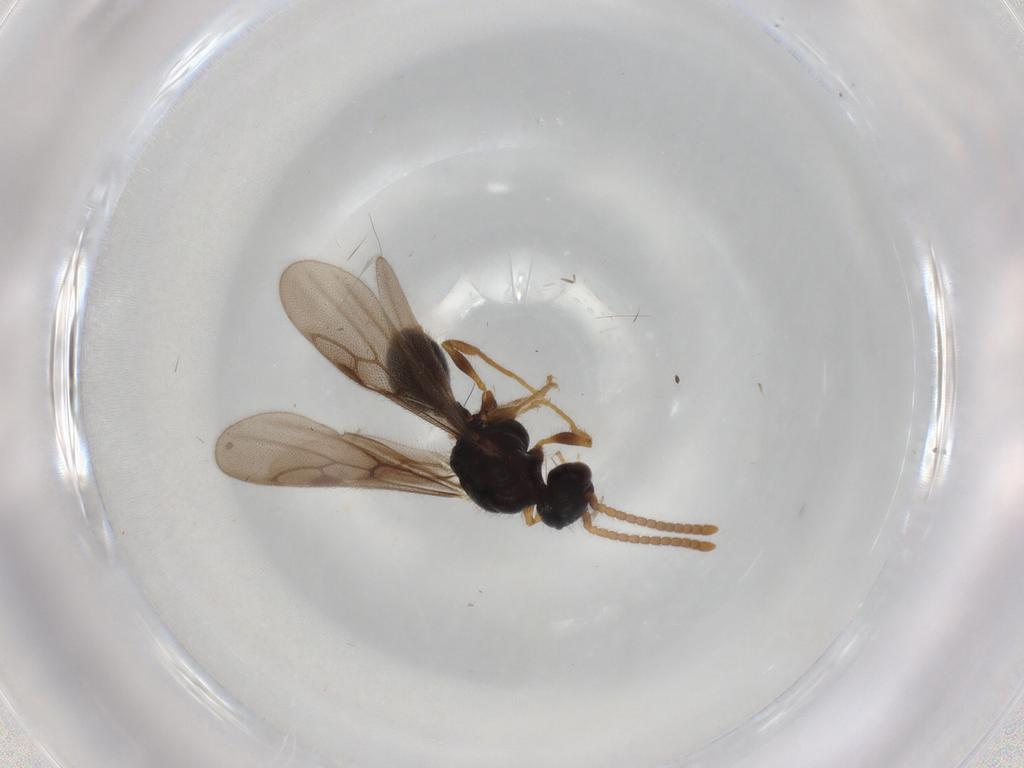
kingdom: Animalia
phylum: Arthropoda
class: Insecta
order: Hymenoptera
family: Formicidae
